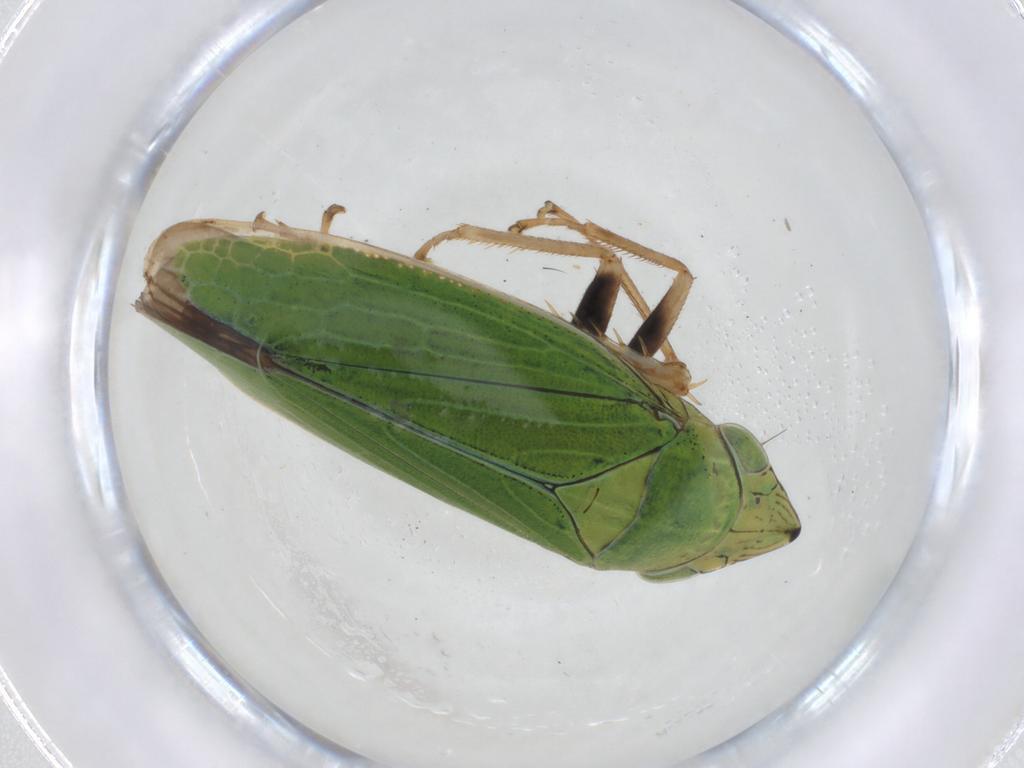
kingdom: Animalia
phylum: Arthropoda
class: Insecta
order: Hemiptera
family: Cicadellidae
